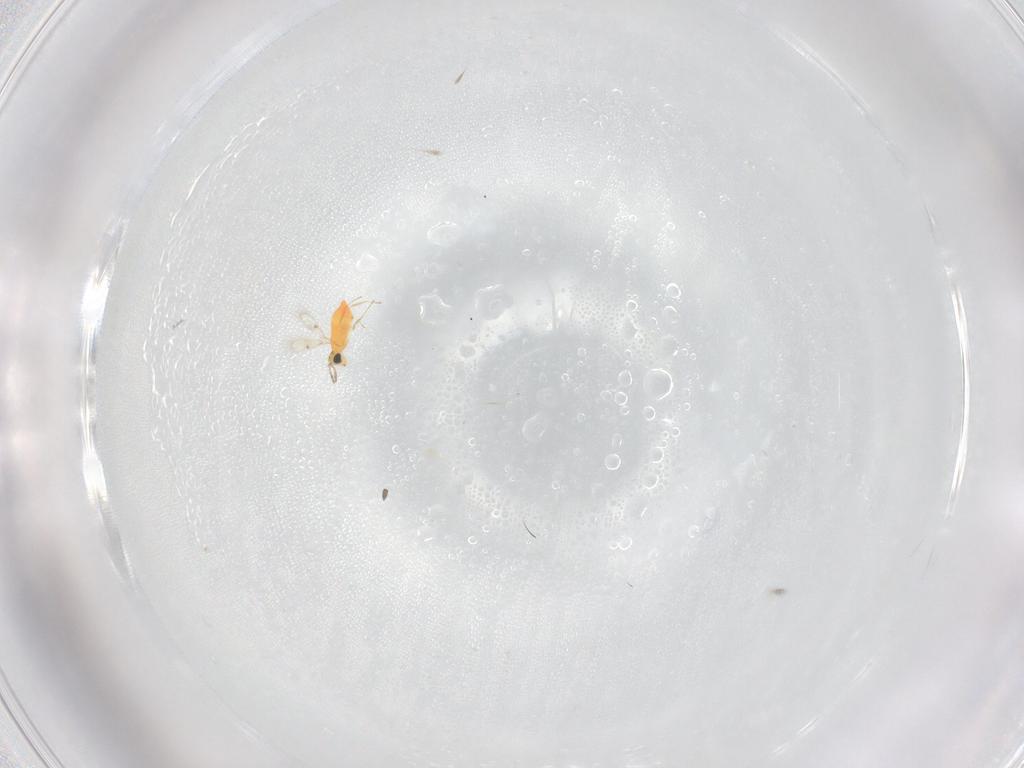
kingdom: Animalia
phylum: Arthropoda
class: Insecta
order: Hymenoptera
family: Trichogrammatidae
